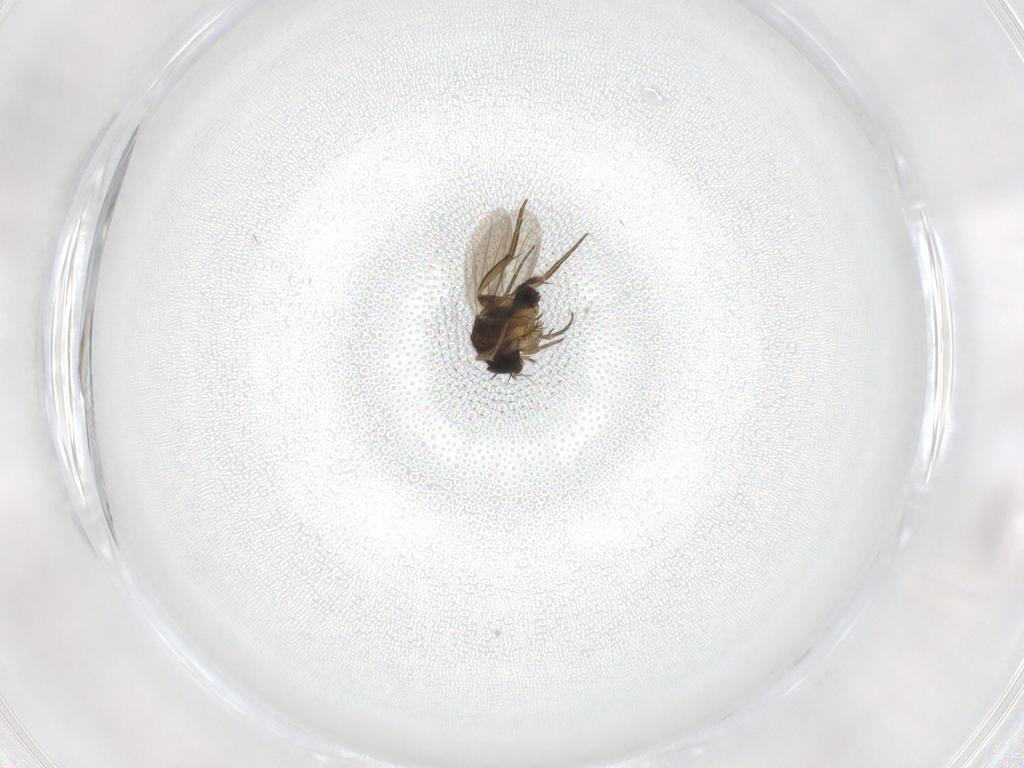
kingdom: Animalia
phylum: Arthropoda
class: Insecta
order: Diptera
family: Phoridae
